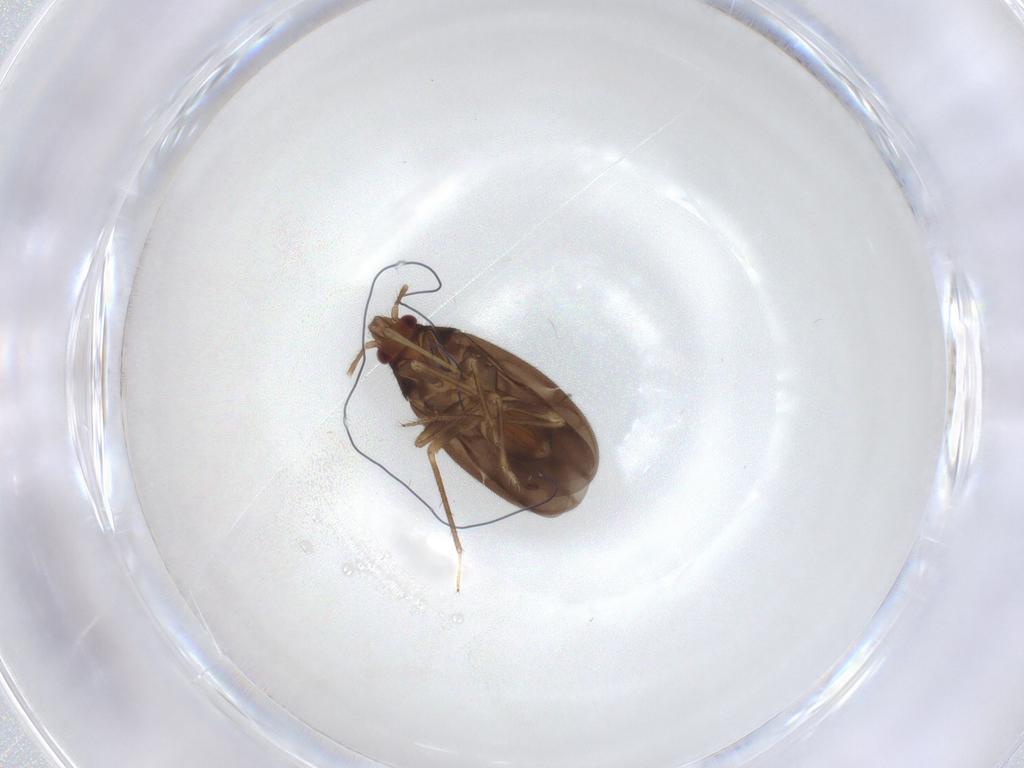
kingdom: Animalia
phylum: Arthropoda
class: Insecta
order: Hemiptera
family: Ceratocombidae
